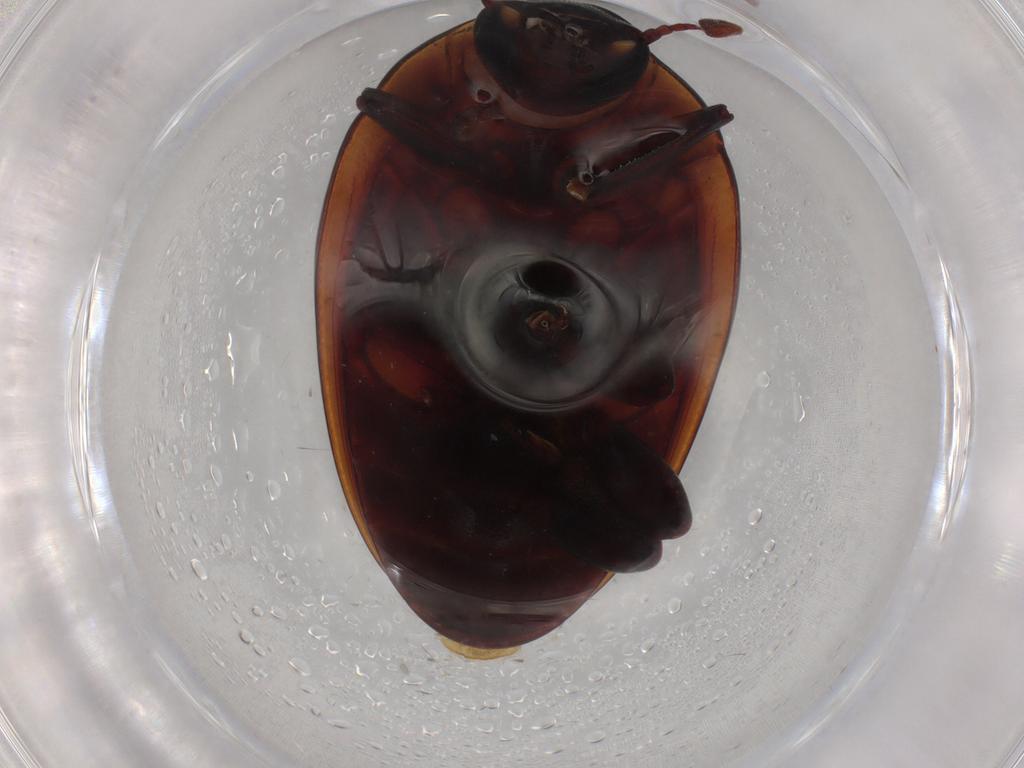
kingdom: Animalia
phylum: Arthropoda
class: Insecta
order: Coleoptera
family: Zopheridae
